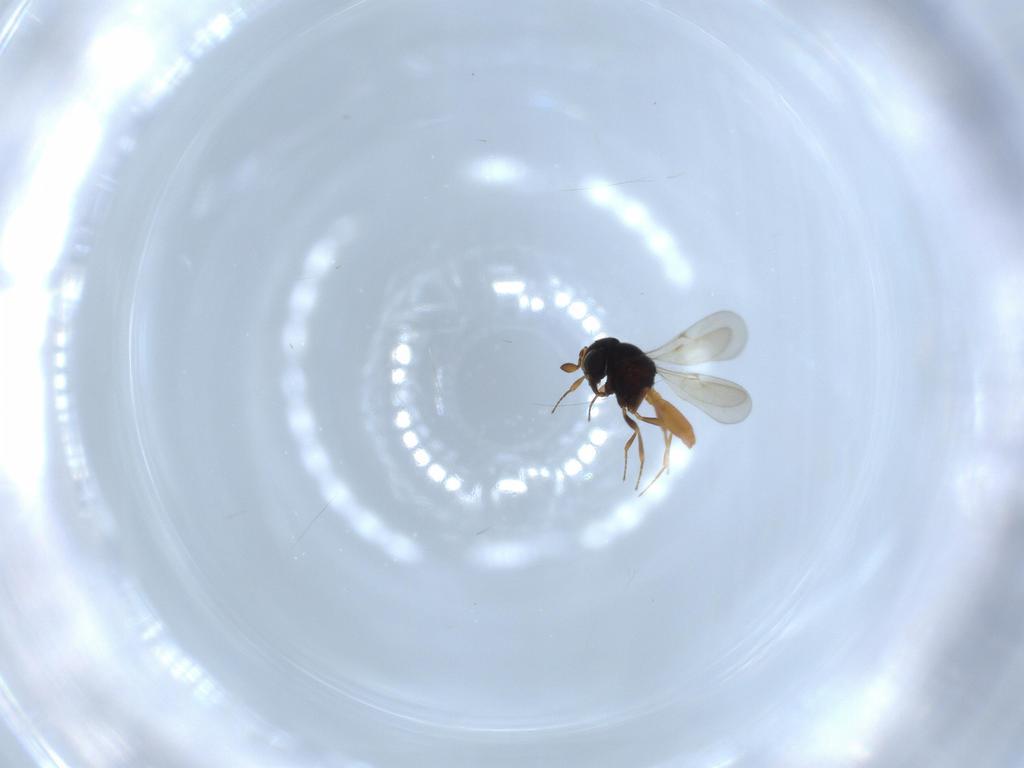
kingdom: Animalia
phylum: Arthropoda
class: Insecta
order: Hymenoptera
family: Scelionidae
